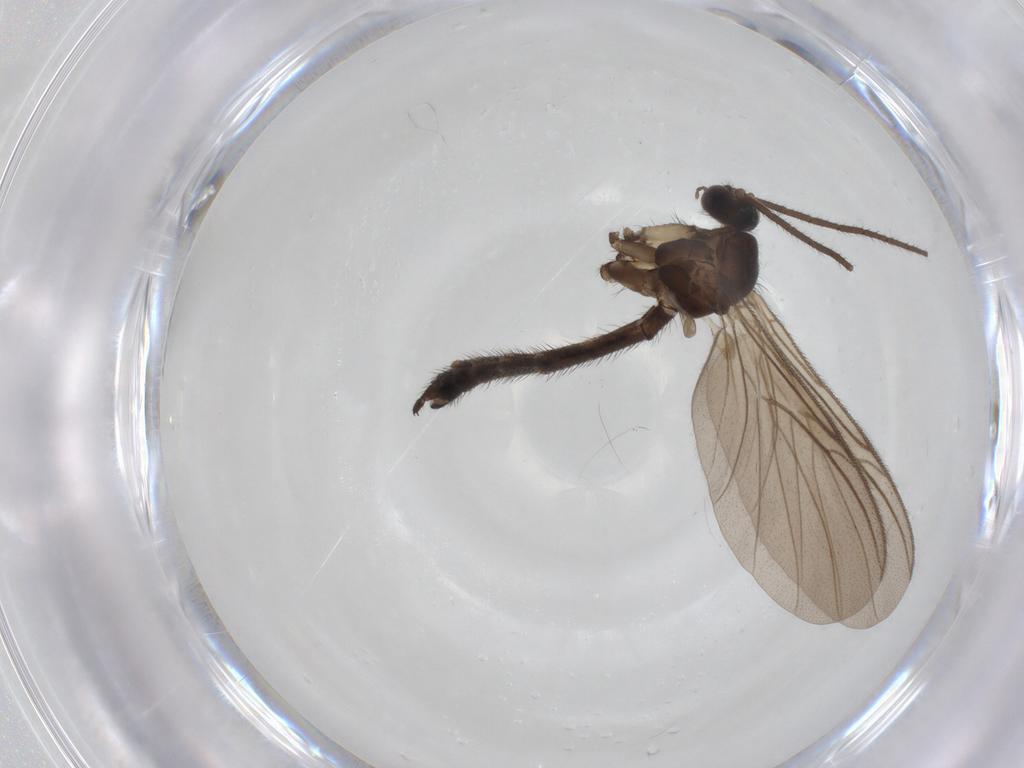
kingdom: Animalia
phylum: Arthropoda
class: Insecta
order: Diptera
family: Keroplatidae
